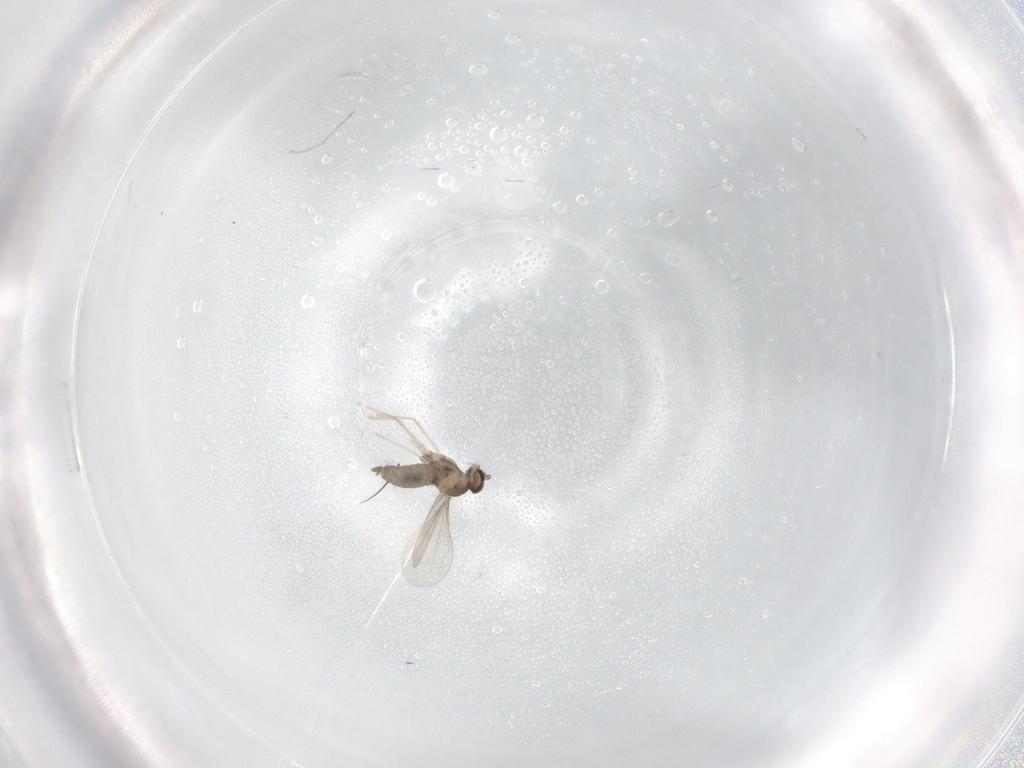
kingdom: Animalia
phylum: Arthropoda
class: Insecta
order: Diptera
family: Cecidomyiidae
